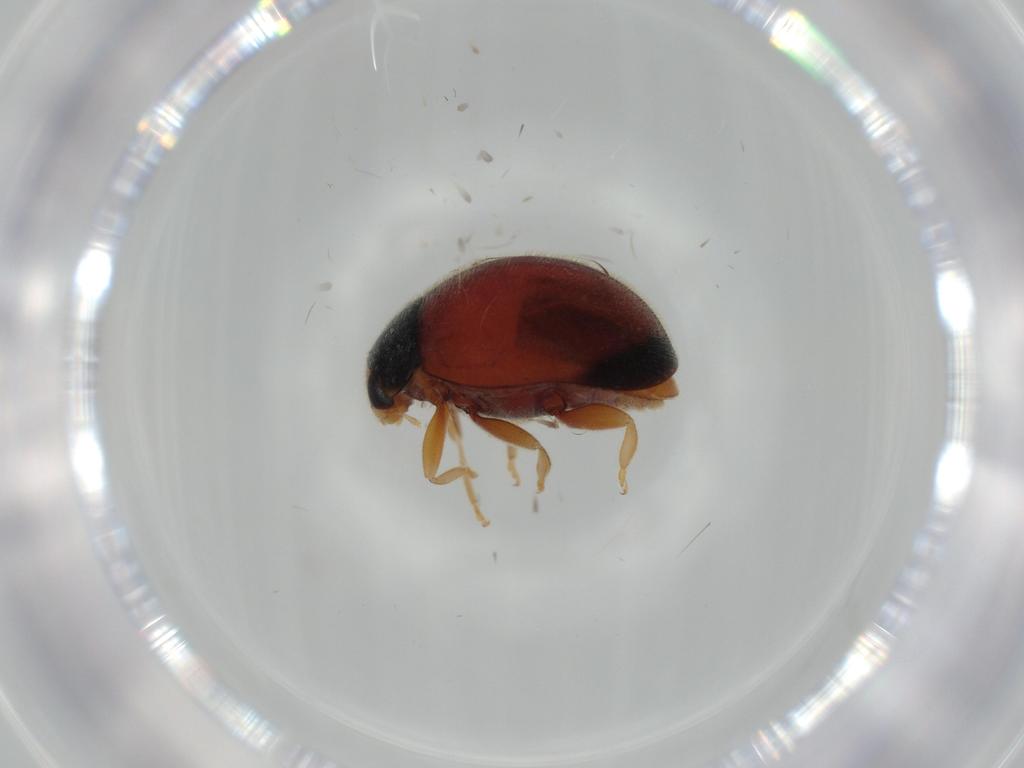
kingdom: Animalia
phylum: Arthropoda
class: Insecta
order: Coleoptera
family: Coccinellidae
